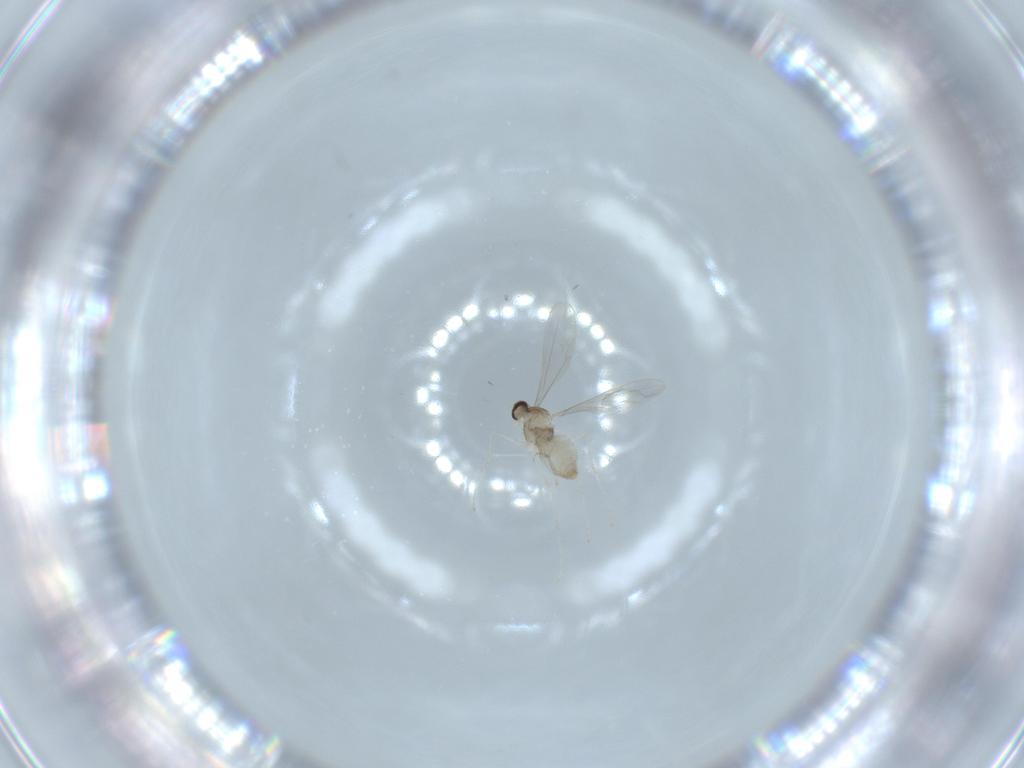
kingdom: Animalia
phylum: Arthropoda
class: Insecta
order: Diptera
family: Cecidomyiidae
